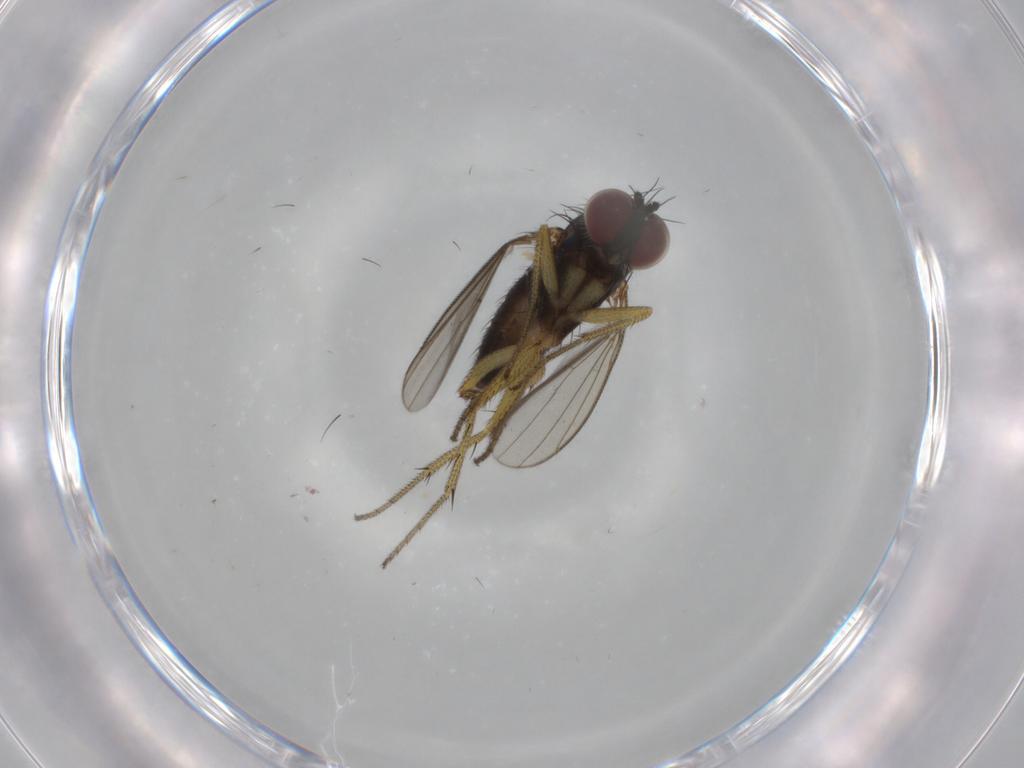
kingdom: Animalia
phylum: Arthropoda
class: Insecta
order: Diptera
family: Dolichopodidae
